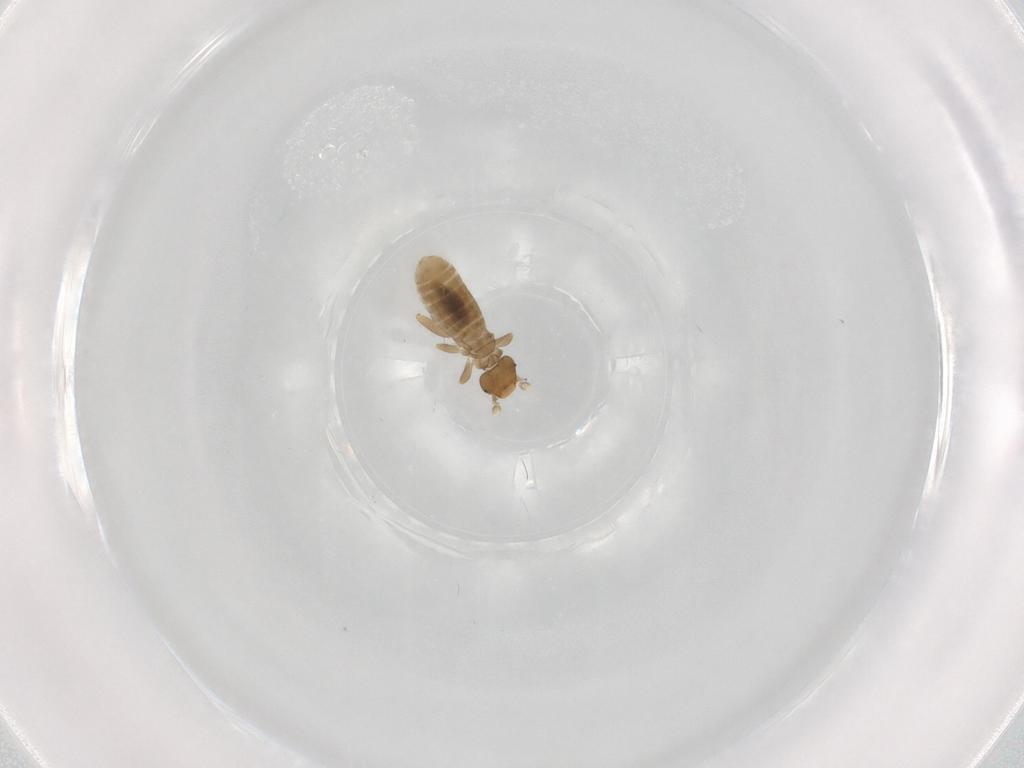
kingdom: Animalia
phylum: Arthropoda
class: Insecta
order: Psocodea
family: Liposcelididae
